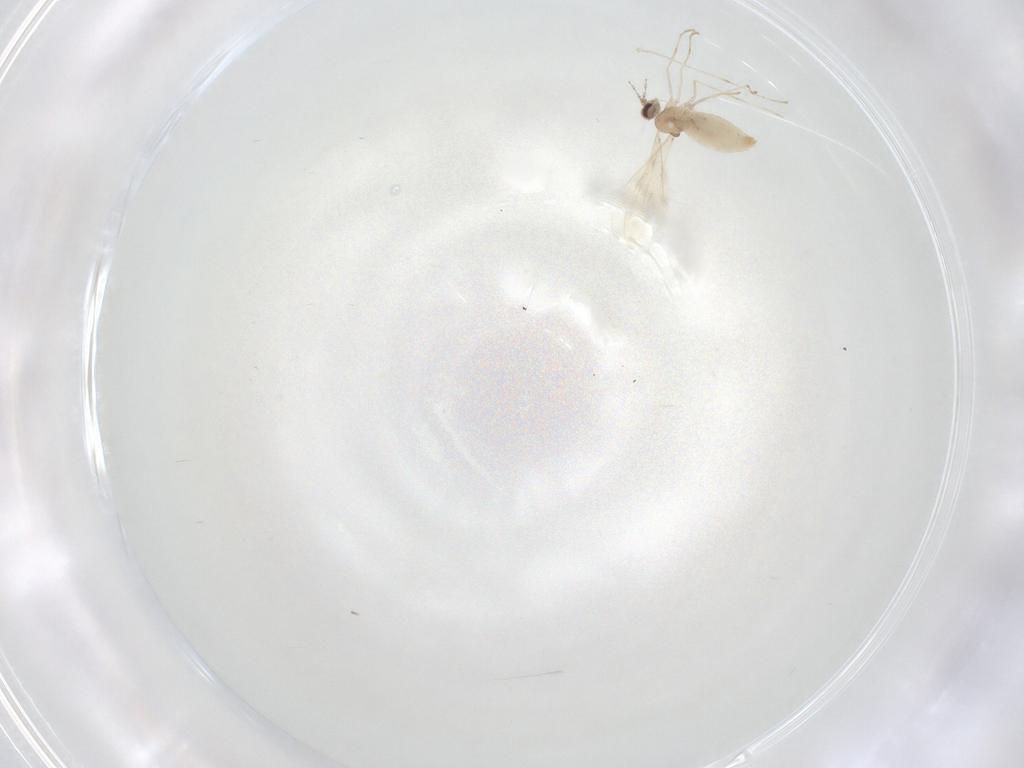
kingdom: Animalia
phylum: Arthropoda
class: Insecta
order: Diptera
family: Cecidomyiidae
